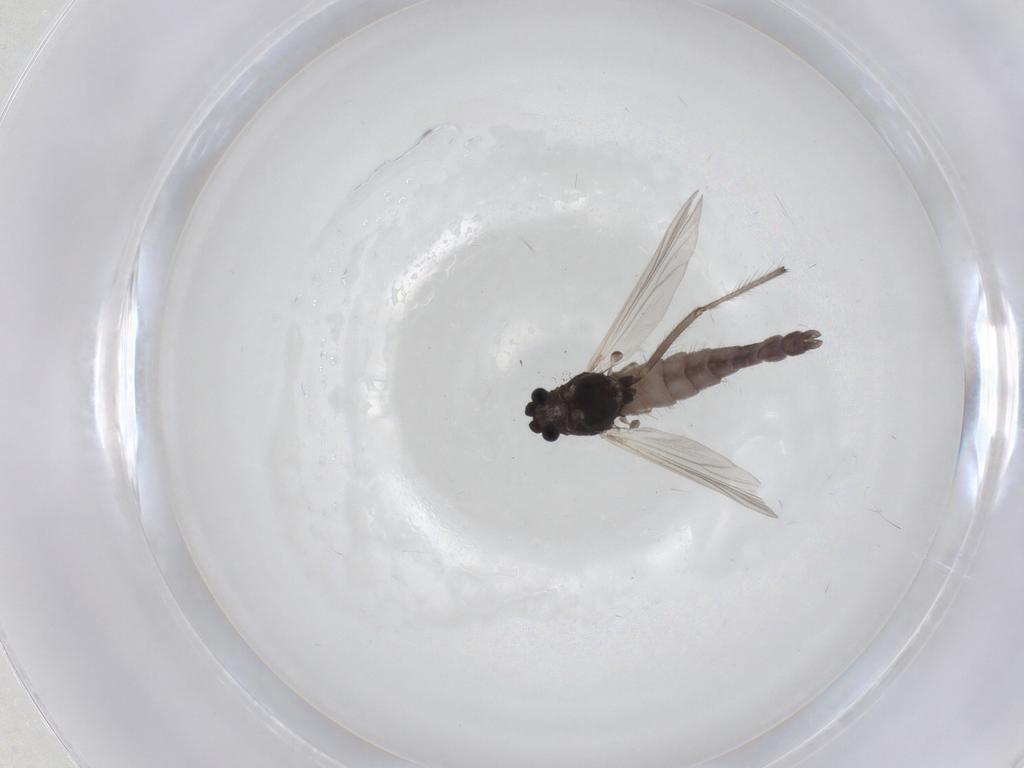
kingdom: Animalia
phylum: Arthropoda
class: Insecta
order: Diptera
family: Chironomidae
